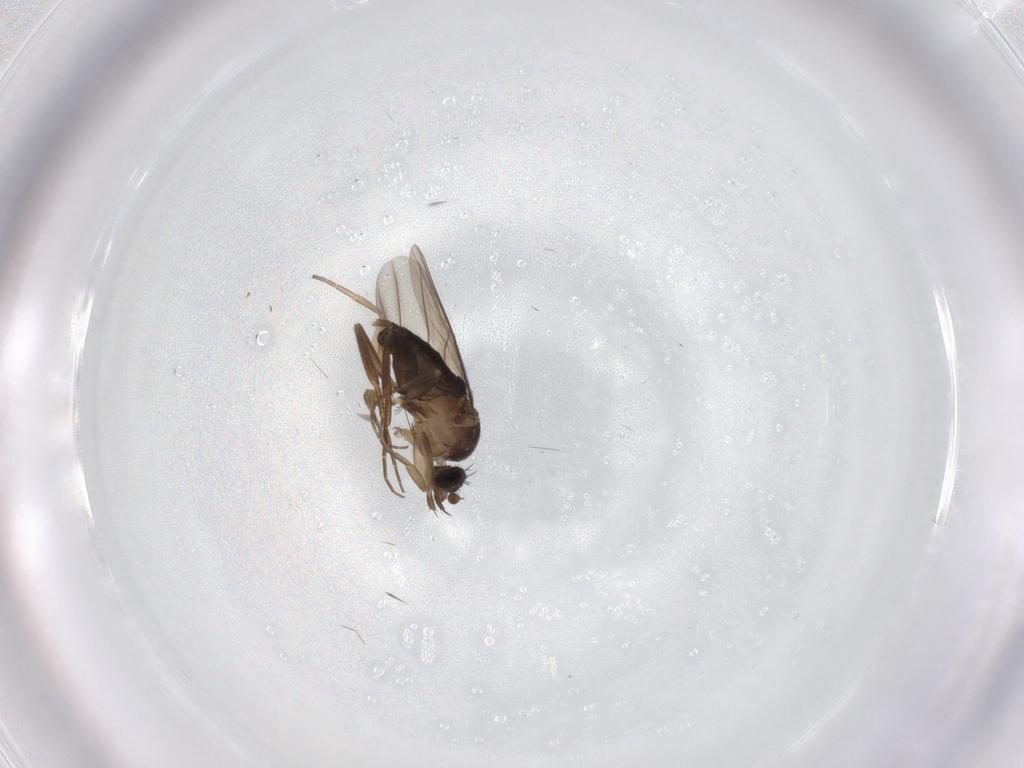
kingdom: Animalia
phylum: Arthropoda
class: Insecta
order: Diptera
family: Phoridae
